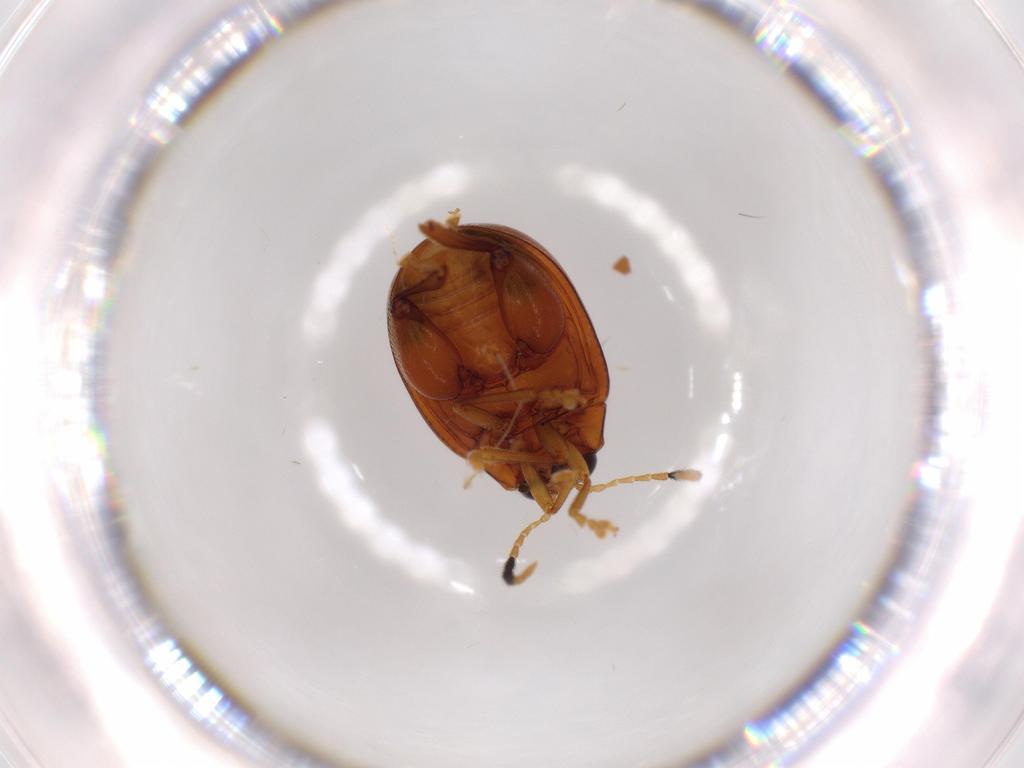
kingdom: Animalia
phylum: Arthropoda
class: Insecta
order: Coleoptera
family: Chrysomelidae
